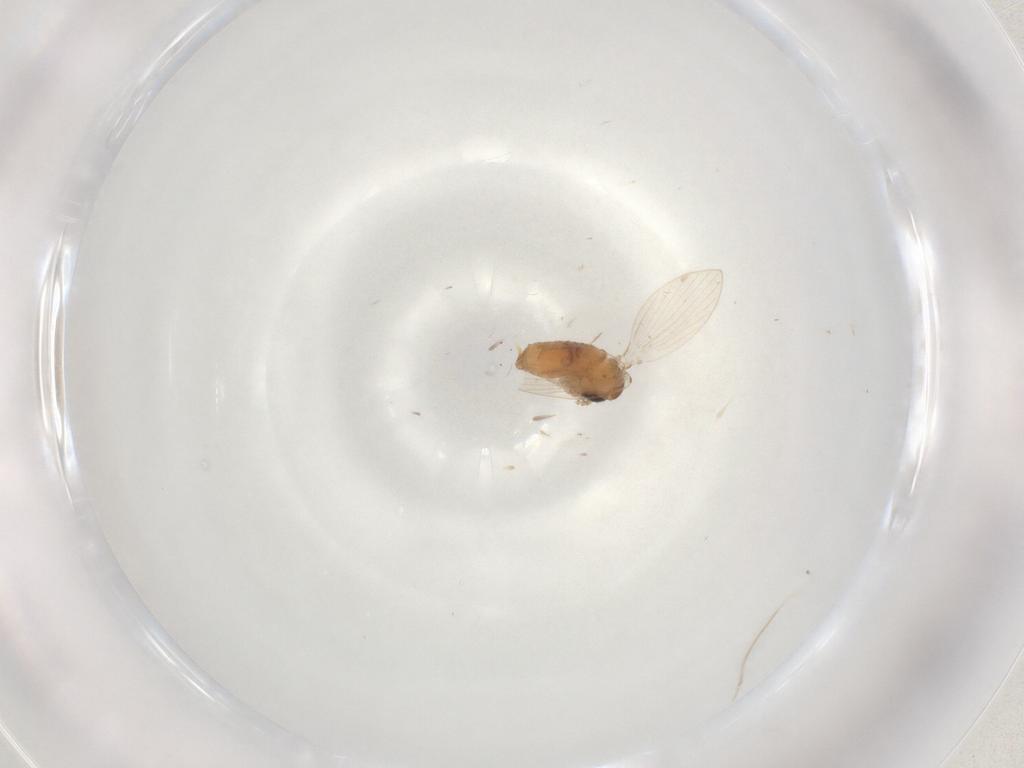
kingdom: Animalia
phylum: Arthropoda
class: Insecta
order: Diptera
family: Psychodidae
